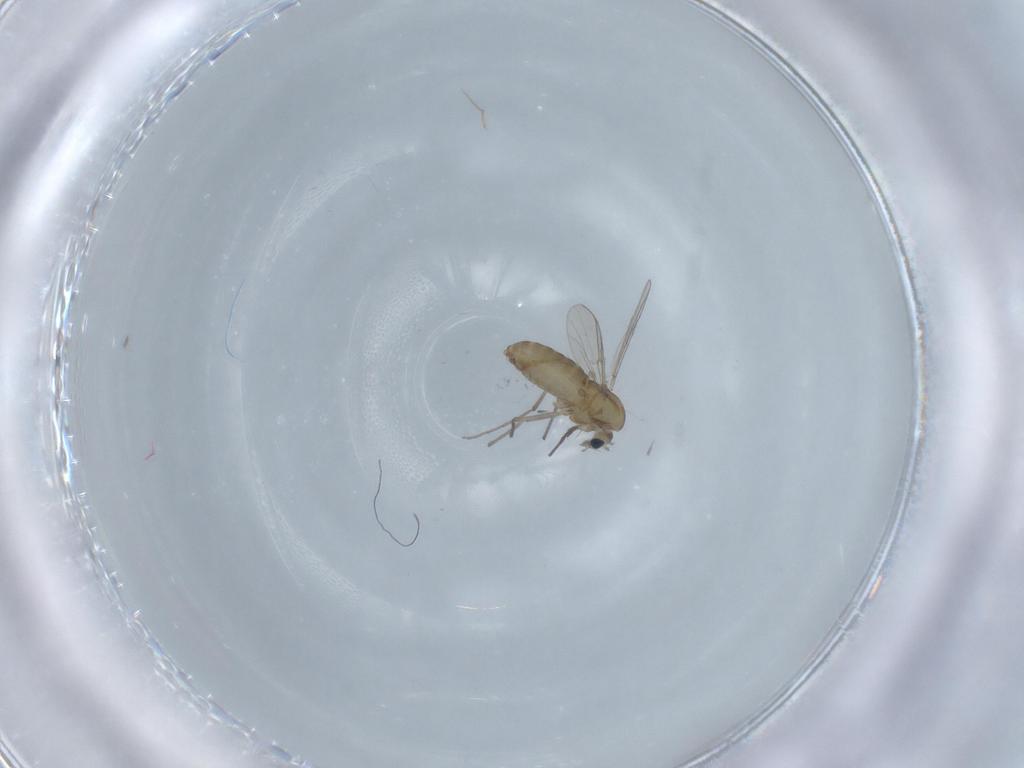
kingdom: Animalia
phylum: Arthropoda
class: Insecta
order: Diptera
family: Chironomidae
